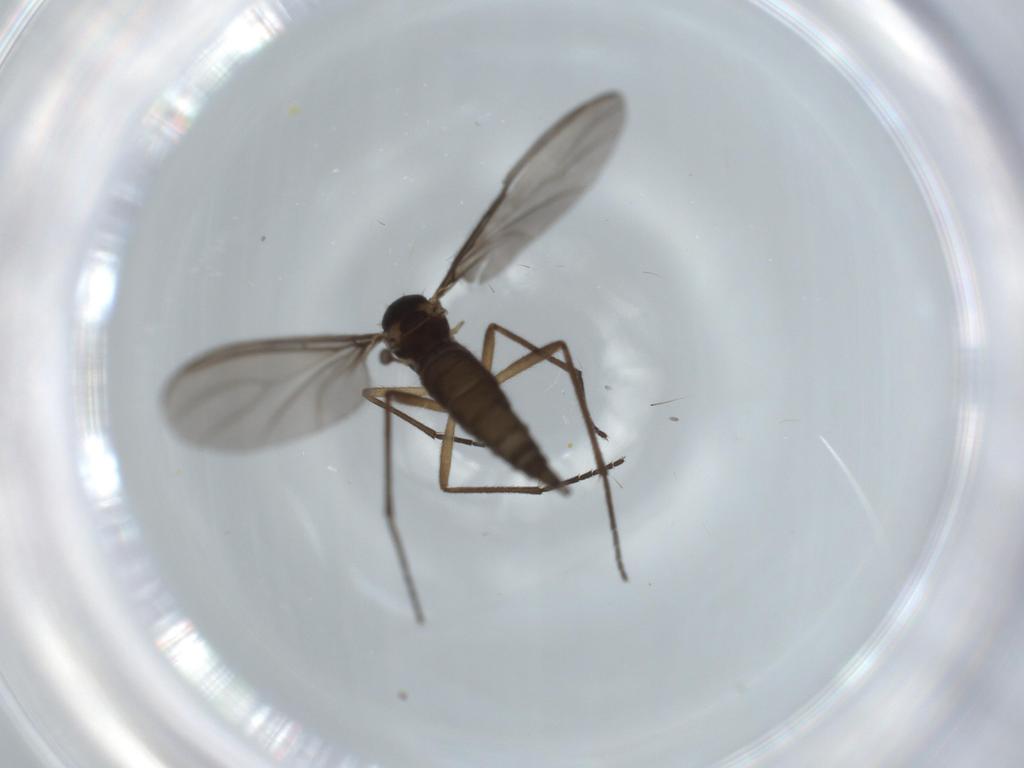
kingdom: Animalia
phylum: Arthropoda
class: Insecta
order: Diptera
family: Sciaridae
